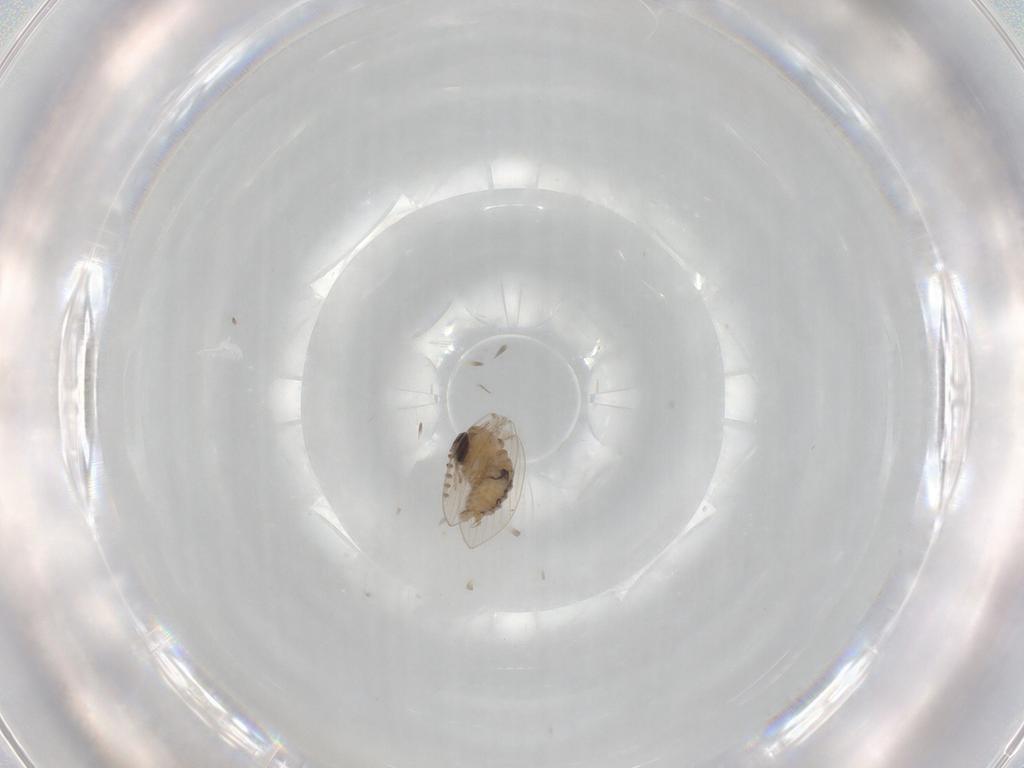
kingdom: Animalia
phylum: Arthropoda
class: Insecta
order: Diptera
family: Psychodidae
